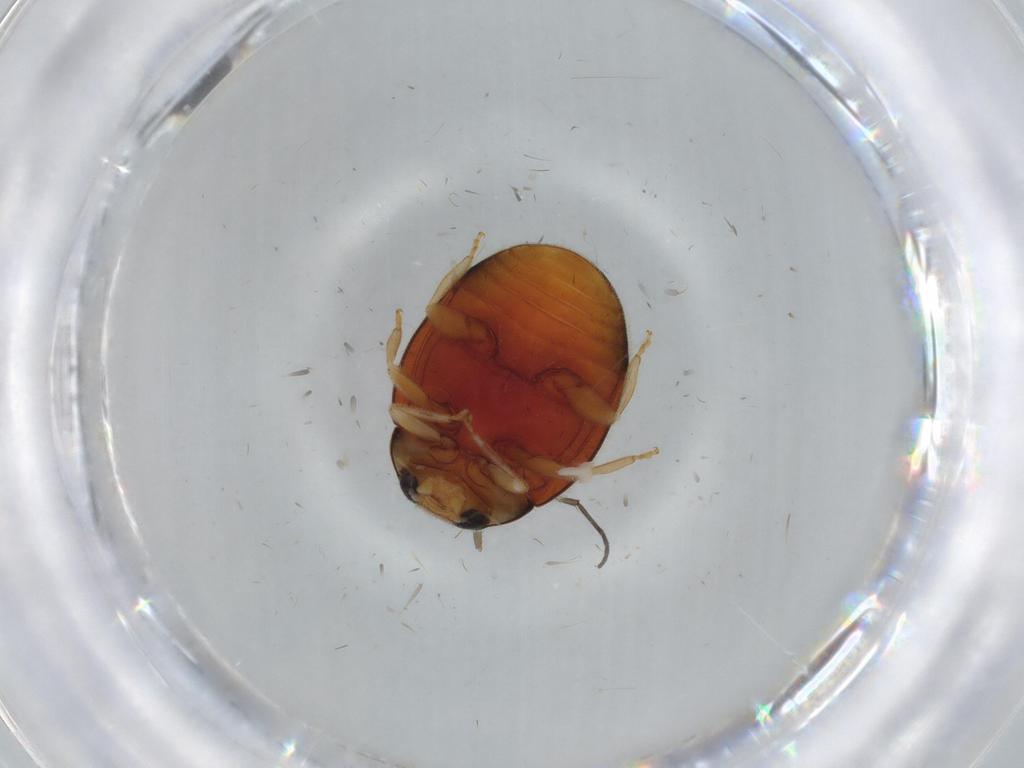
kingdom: Animalia
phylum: Arthropoda
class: Insecta
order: Coleoptera
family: Coccinellidae
